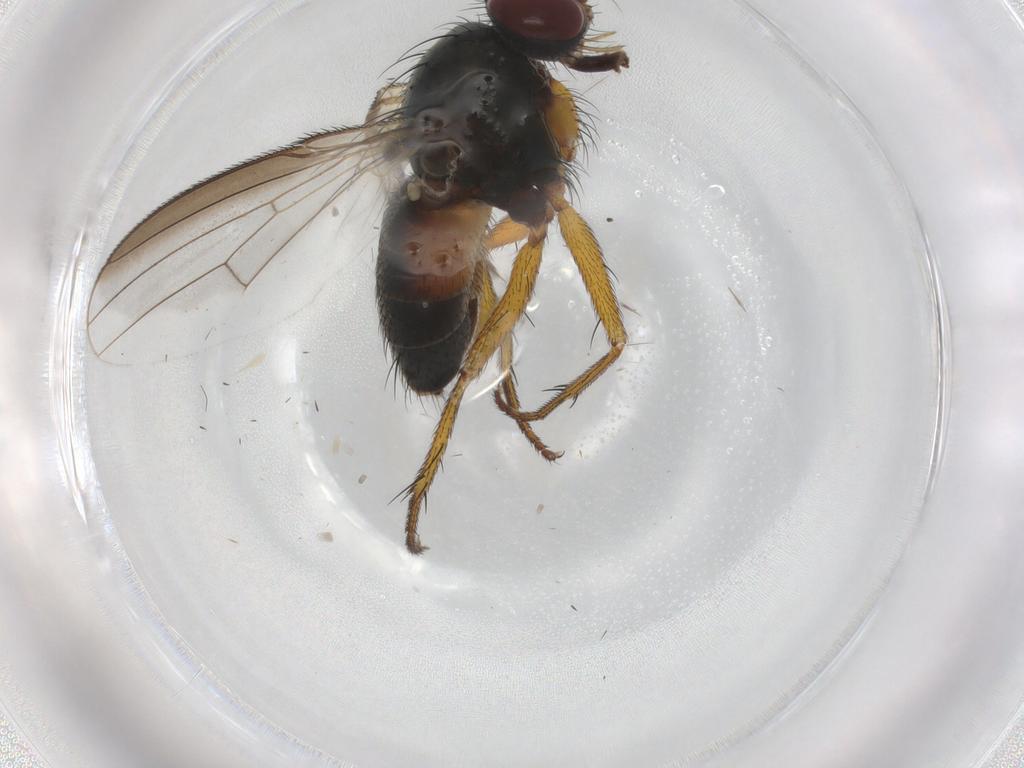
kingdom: Animalia
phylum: Arthropoda
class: Insecta
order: Diptera
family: Muscidae
